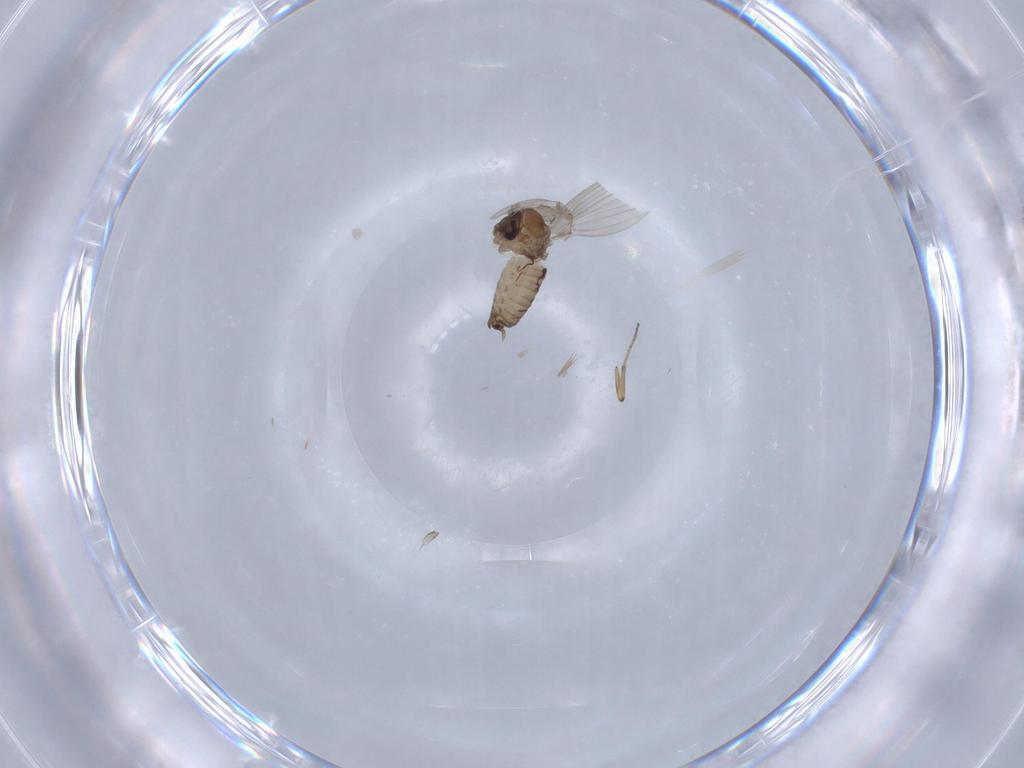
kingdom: Animalia
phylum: Arthropoda
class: Insecta
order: Diptera
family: Psychodidae
